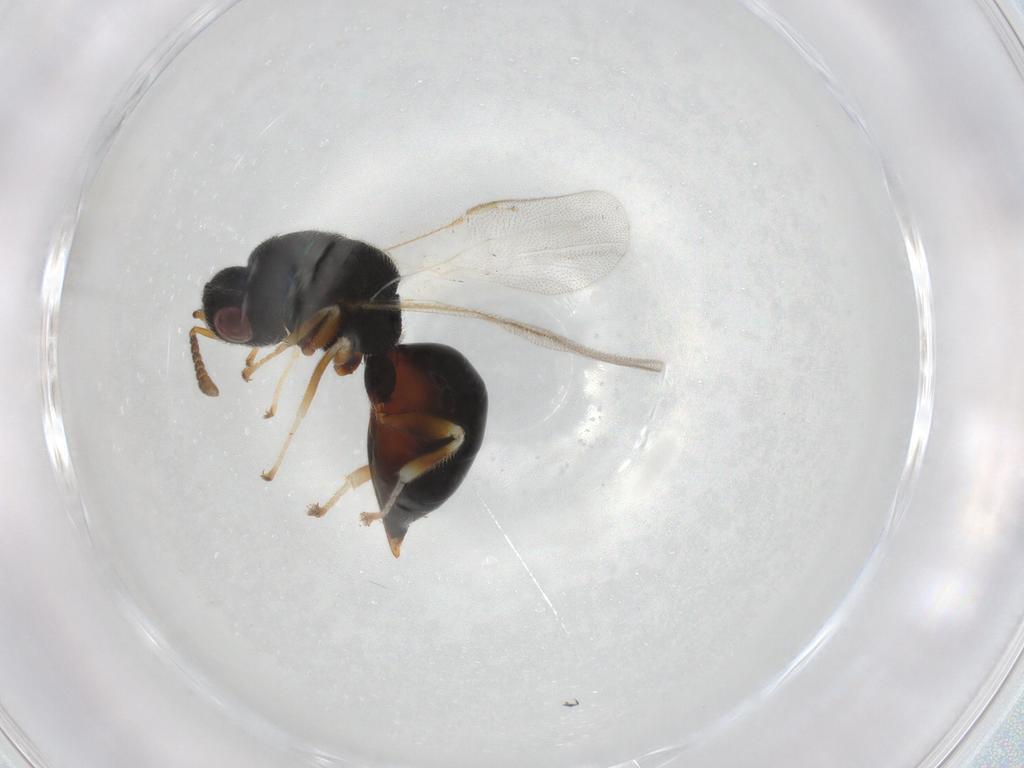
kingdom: Animalia
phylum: Arthropoda
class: Insecta
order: Hymenoptera
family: Eurytomidae
